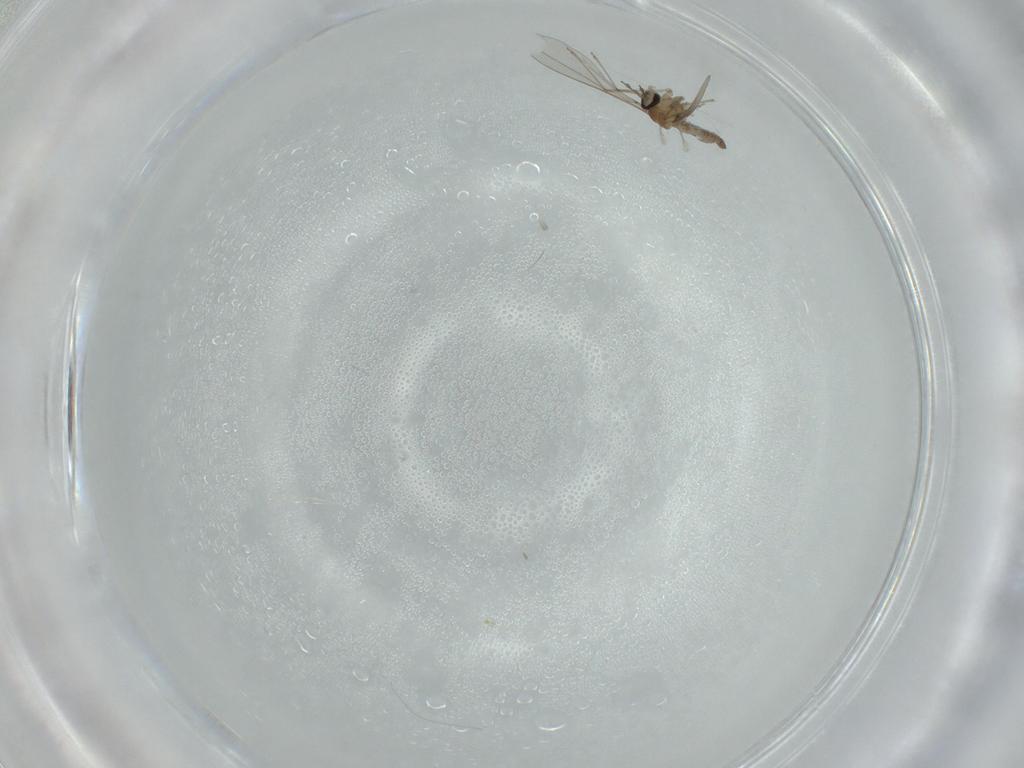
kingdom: Animalia
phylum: Arthropoda
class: Insecta
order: Diptera
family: Cecidomyiidae
